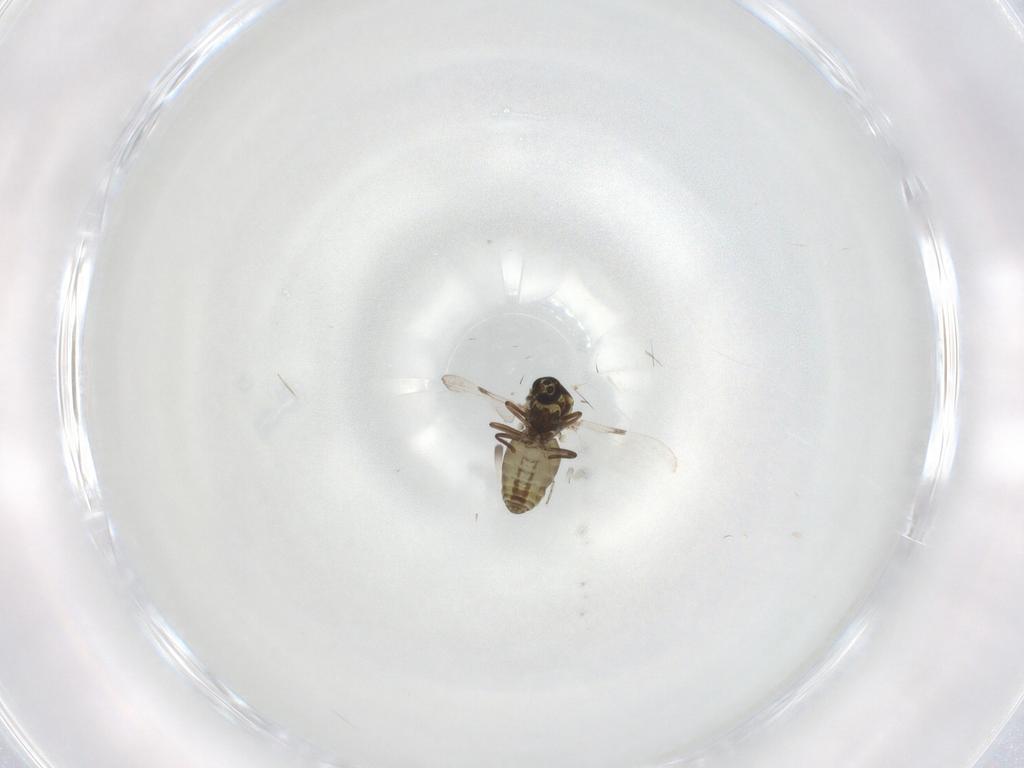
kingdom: Animalia
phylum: Arthropoda
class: Insecta
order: Diptera
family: Ceratopogonidae
